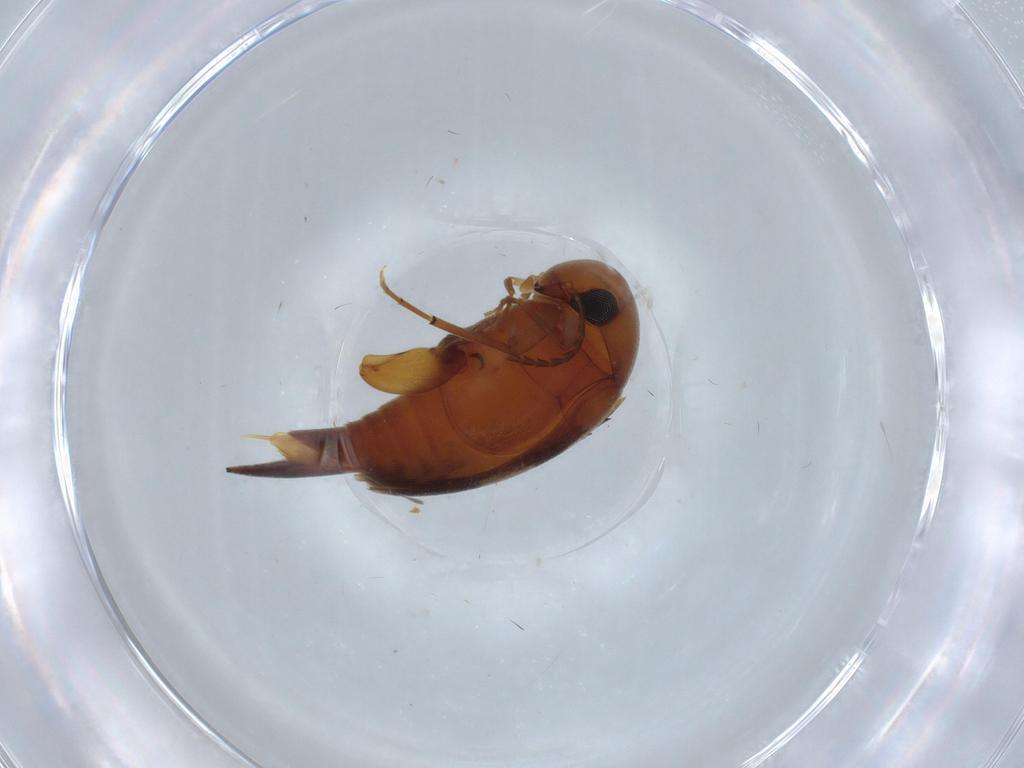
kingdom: Animalia
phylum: Arthropoda
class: Insecta
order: Coleoptera
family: Mordellidae
